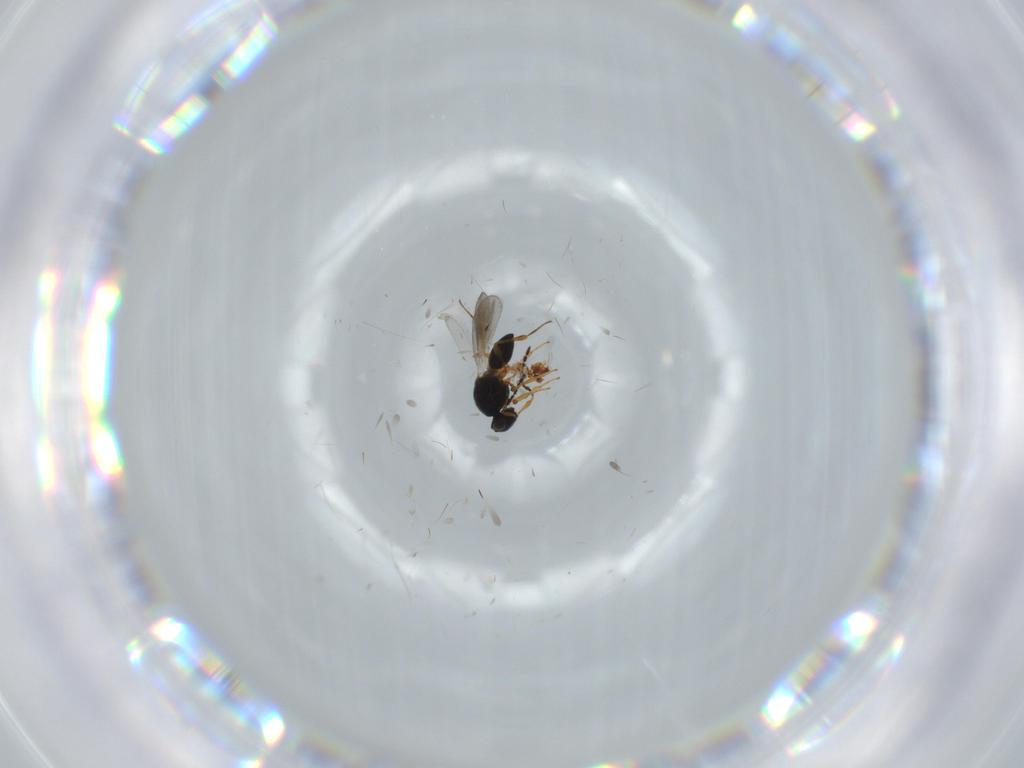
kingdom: Animalia
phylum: Arthropoda
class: Insecta
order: Hymenoptera
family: Platygastridae
